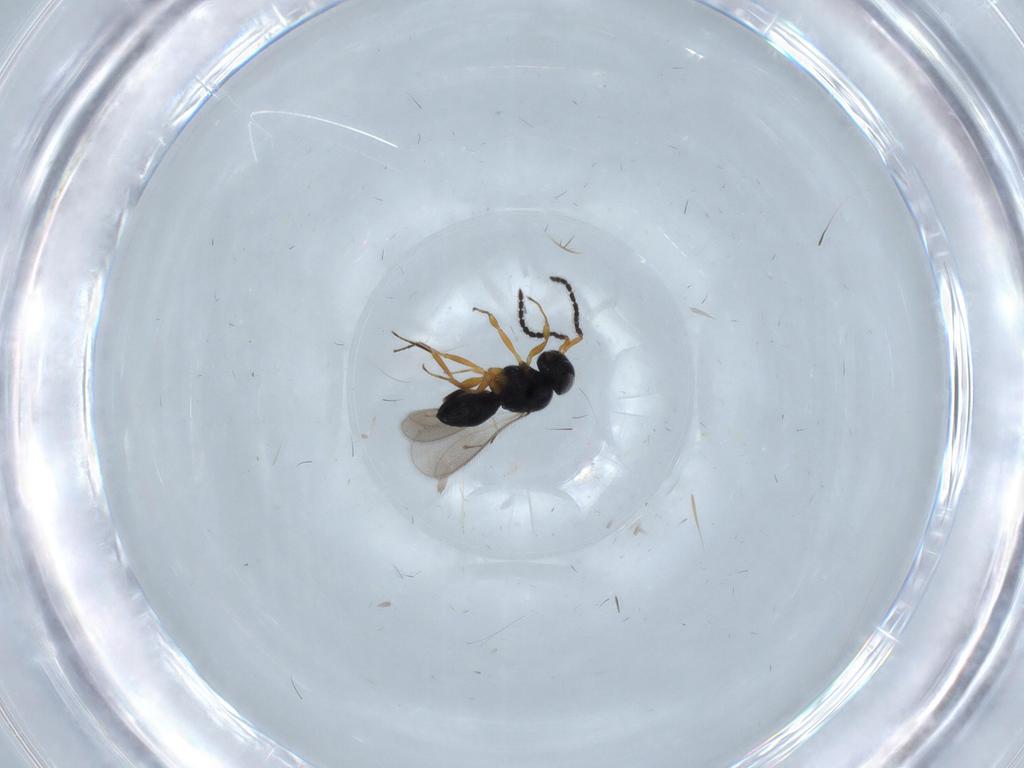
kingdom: Animalia
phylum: Arthropoda
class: Insecta
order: Hymenoptera
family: Scelionidae
